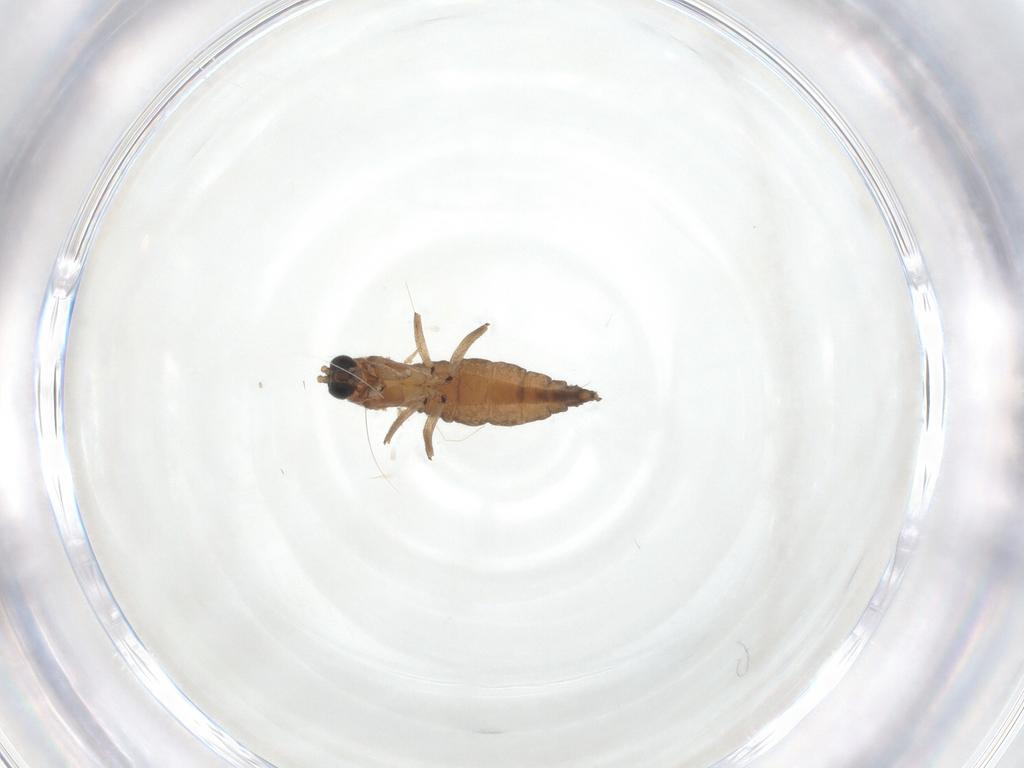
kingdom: Animalia
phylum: Arthropoda
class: Insecta
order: Diptera
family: Sciaridae
